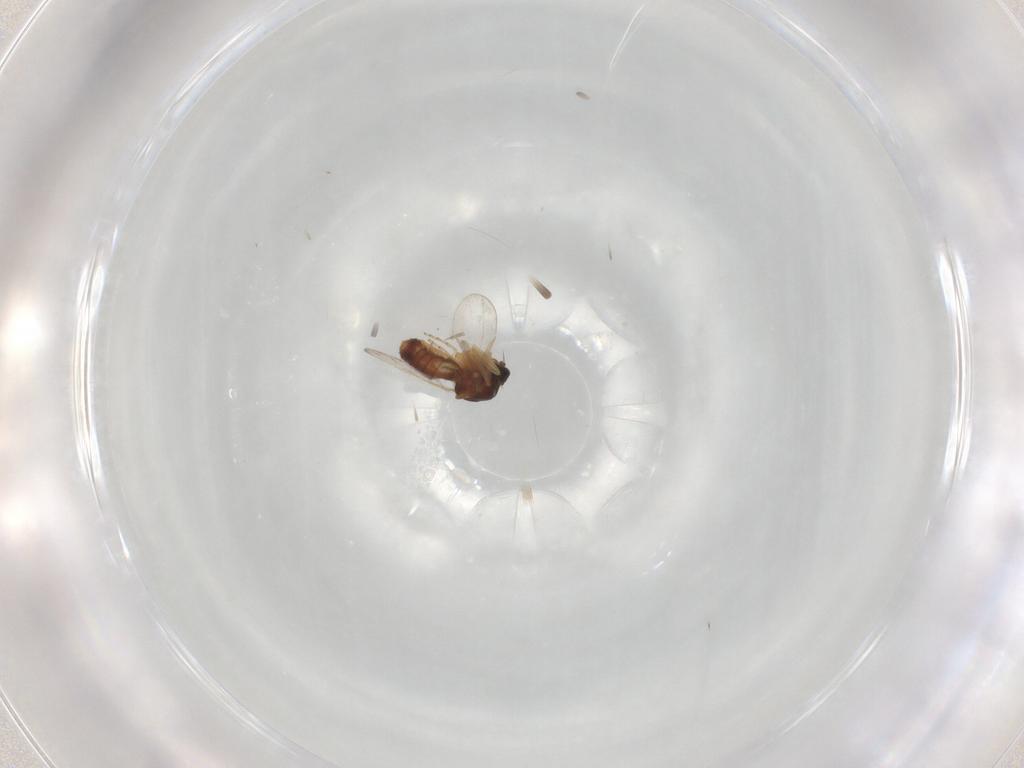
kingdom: Animalia
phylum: Arthropoda
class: Insecta
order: Diptera
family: Ceratopogonidae
